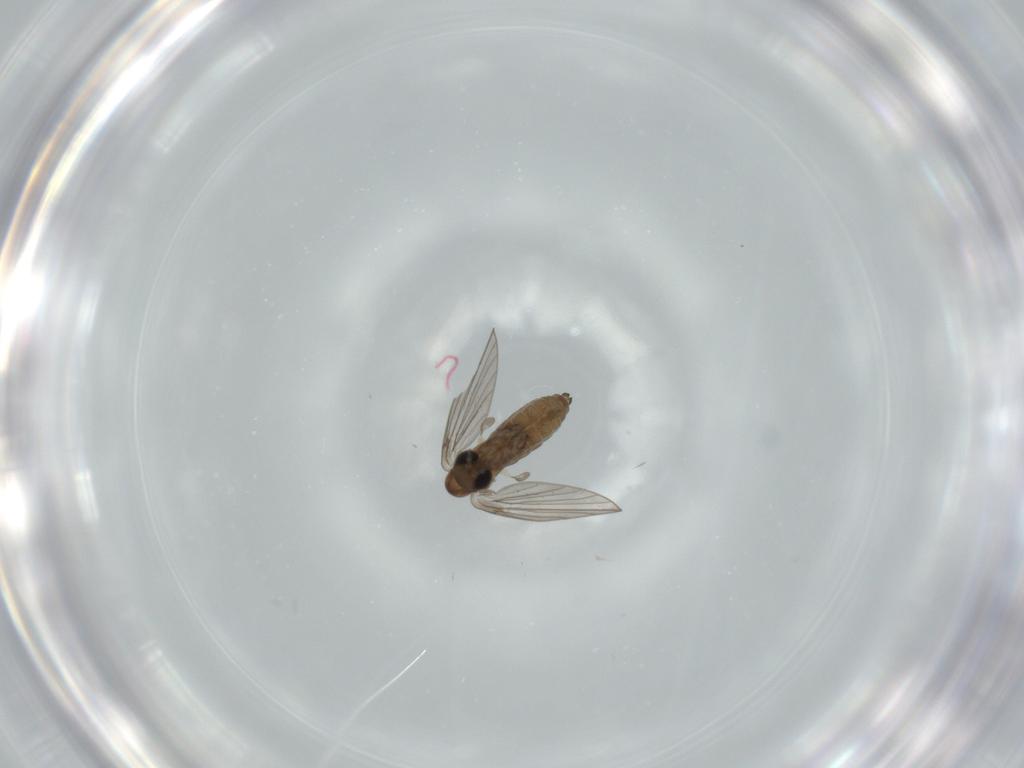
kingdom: Animalia
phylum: Arthropoda
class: Insecta
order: Diptera
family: Psychodidae
